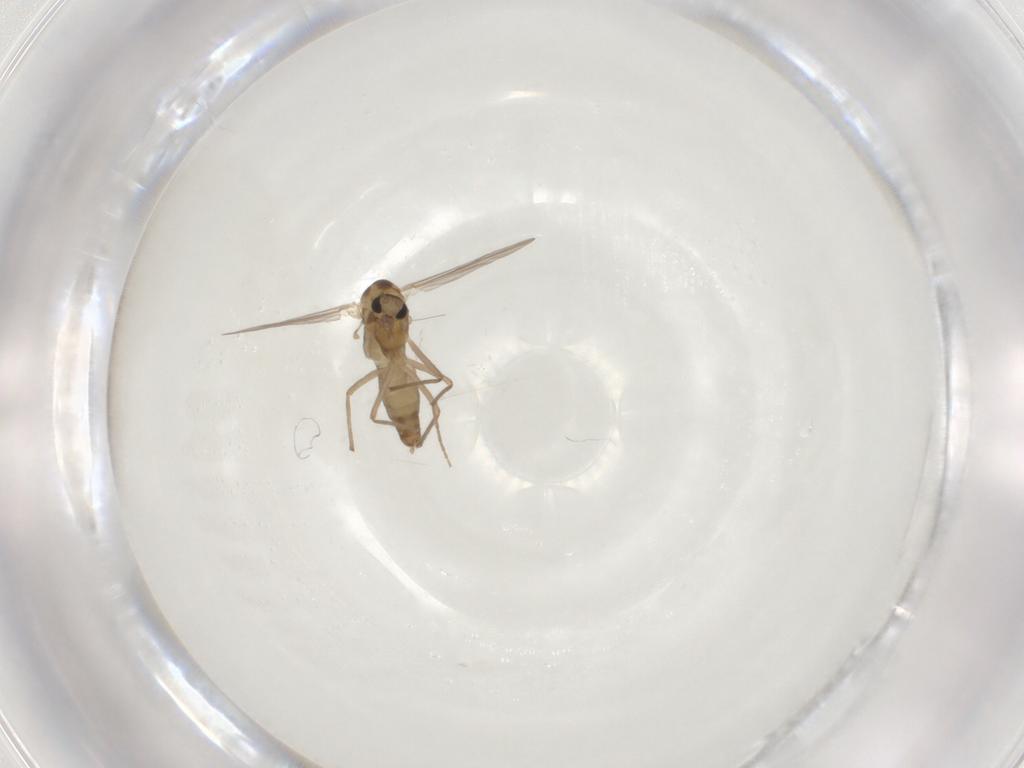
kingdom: Animalia
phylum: Arthropoda
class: Insecta
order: Diptera
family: Chironomidae
